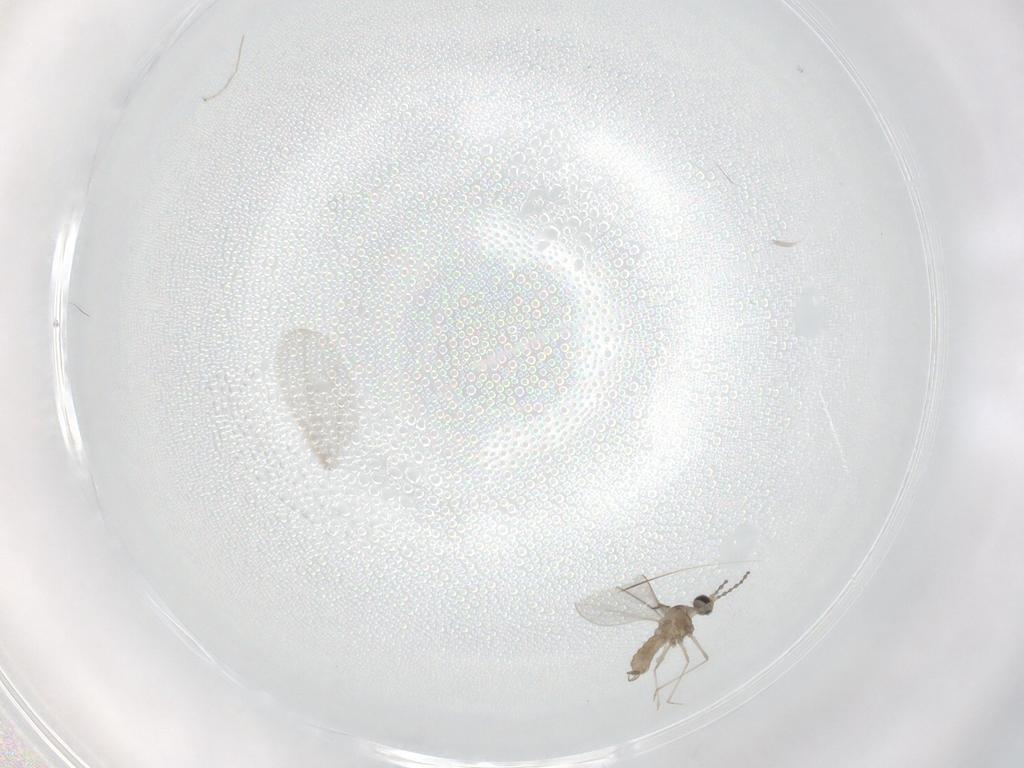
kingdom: Animalia
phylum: Arthropoda
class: Insecta
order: Diptera
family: Cecidomyiidae
